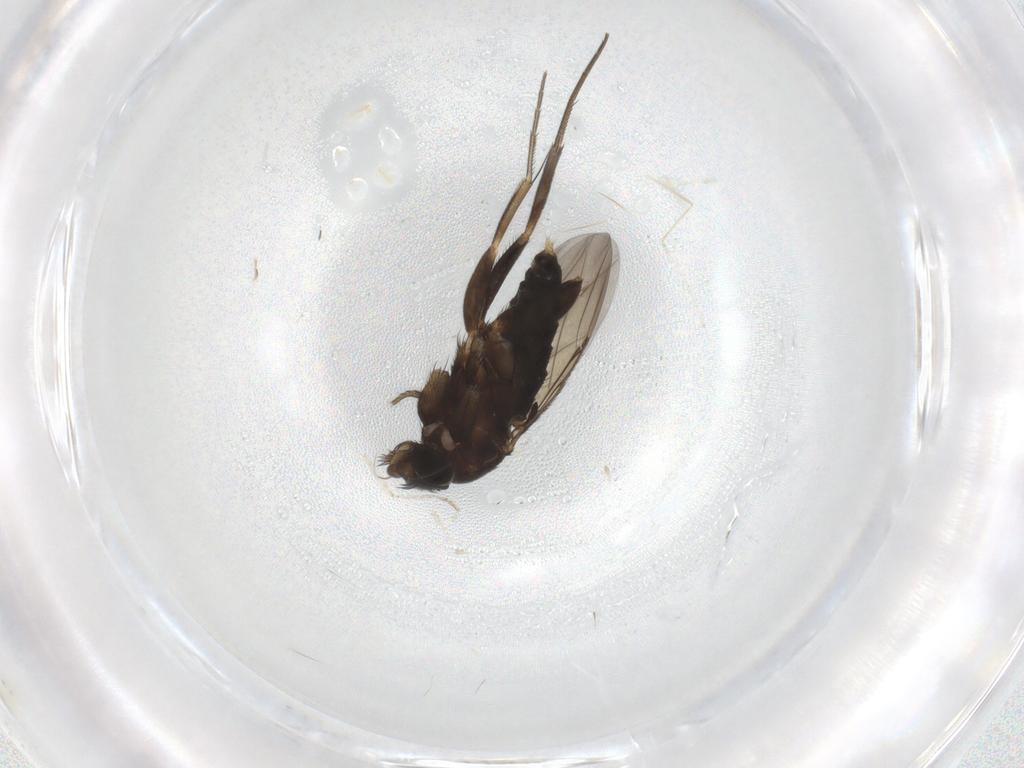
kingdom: Animalia
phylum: Arthropoda
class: Insecta
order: Diptera
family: Cecidomyiidae
